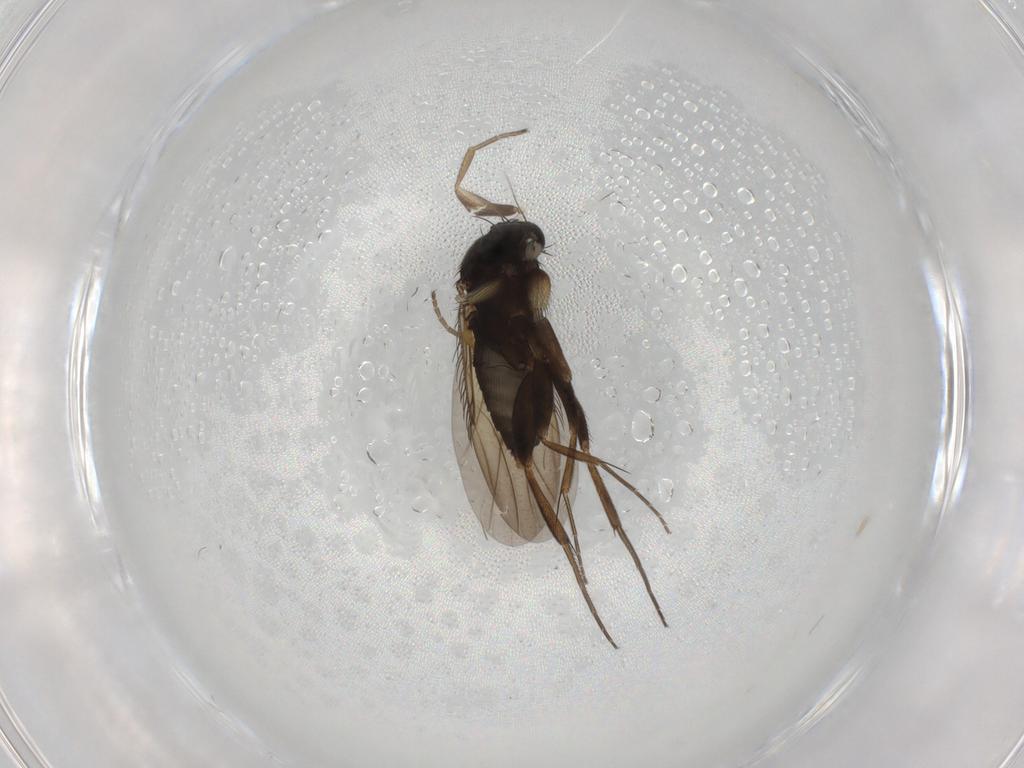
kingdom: Animalia
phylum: Arthropoda
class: Insecta
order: Diptera
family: Phoridae
